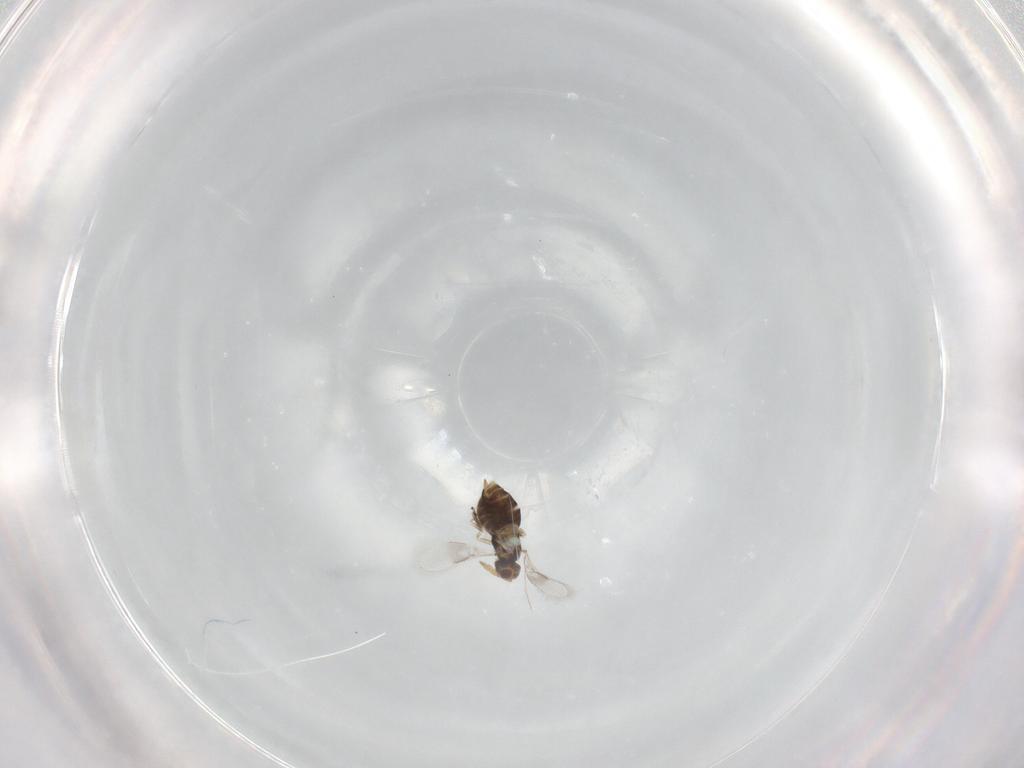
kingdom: Animalia
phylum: Arthropoda
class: Insecta
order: Hymenoptera
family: Scelionidae
